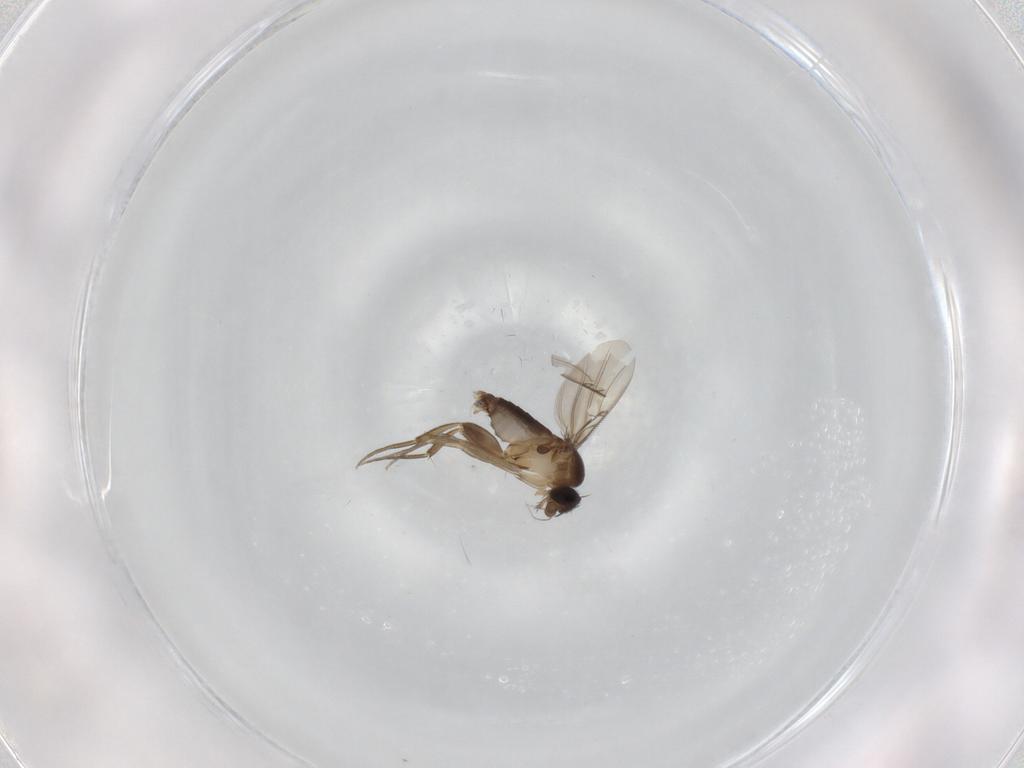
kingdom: Animalia
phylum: Arthropoda
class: Insecta
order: Diptera
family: Phoridae
